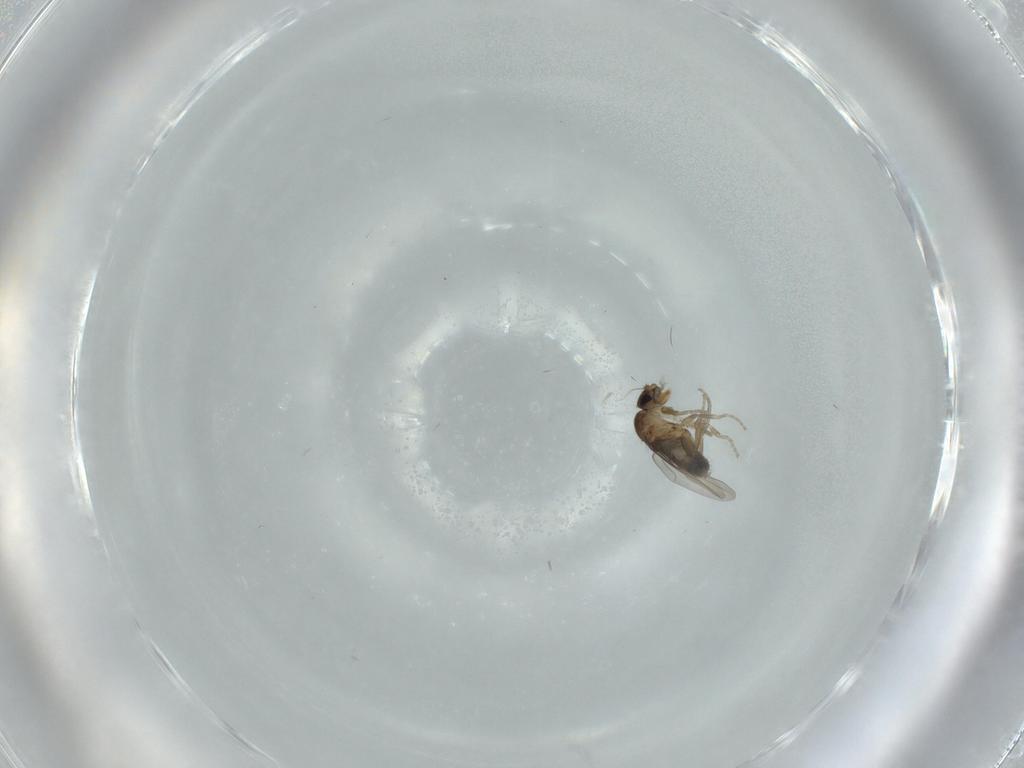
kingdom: Animalia
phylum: Arthropoda
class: Insecta
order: Diptera
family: Phoridae
